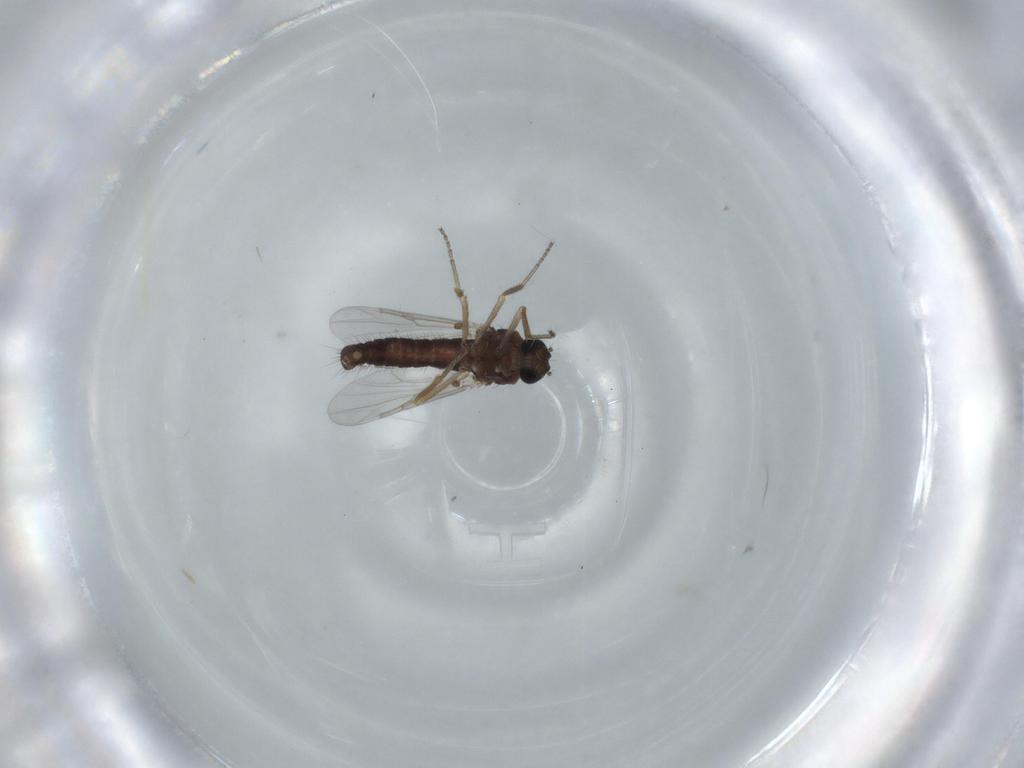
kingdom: Animalia
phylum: Arthropoda
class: Insecta
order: Diptera
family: Ceratopogonidae
